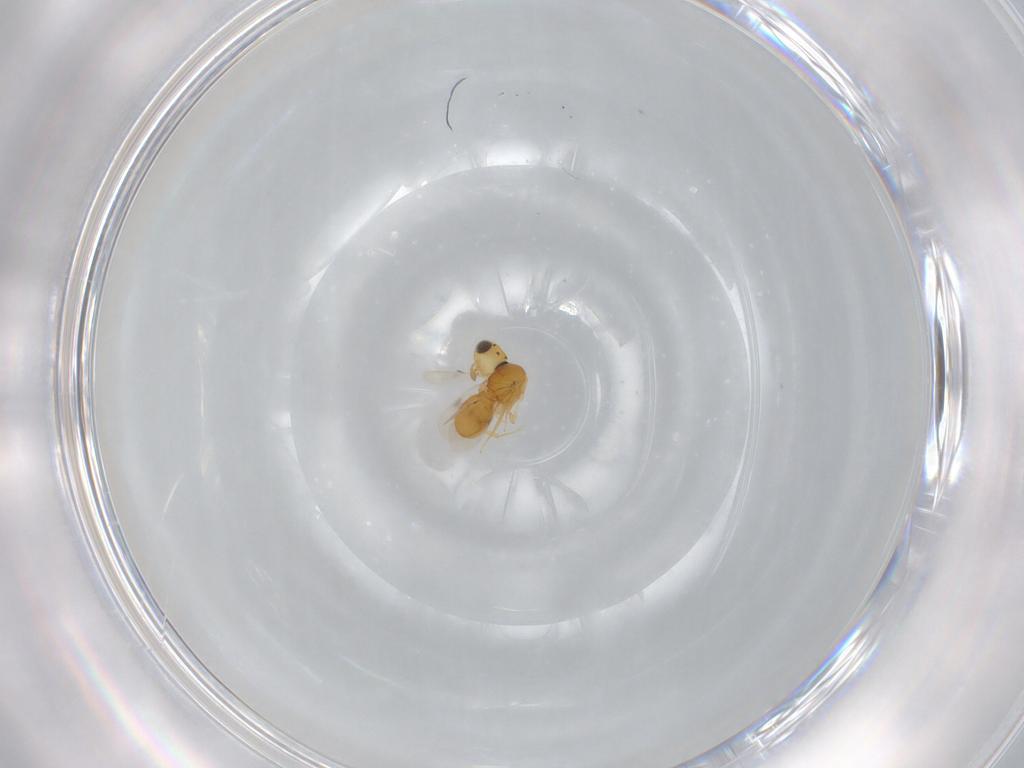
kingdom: Animalia
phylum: Arthropoda
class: Insecta
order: Hymenoptera
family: Scelionidae
